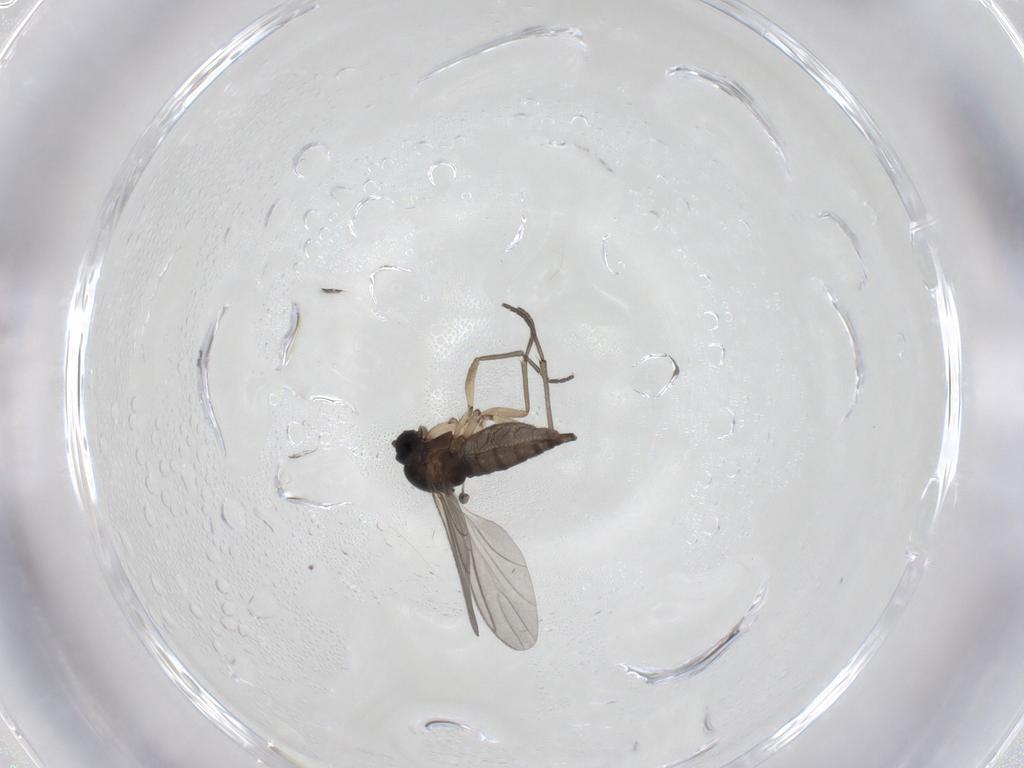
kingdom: Animalia
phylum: Arthropoda
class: Insecta
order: Diptera
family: Sciaridae
